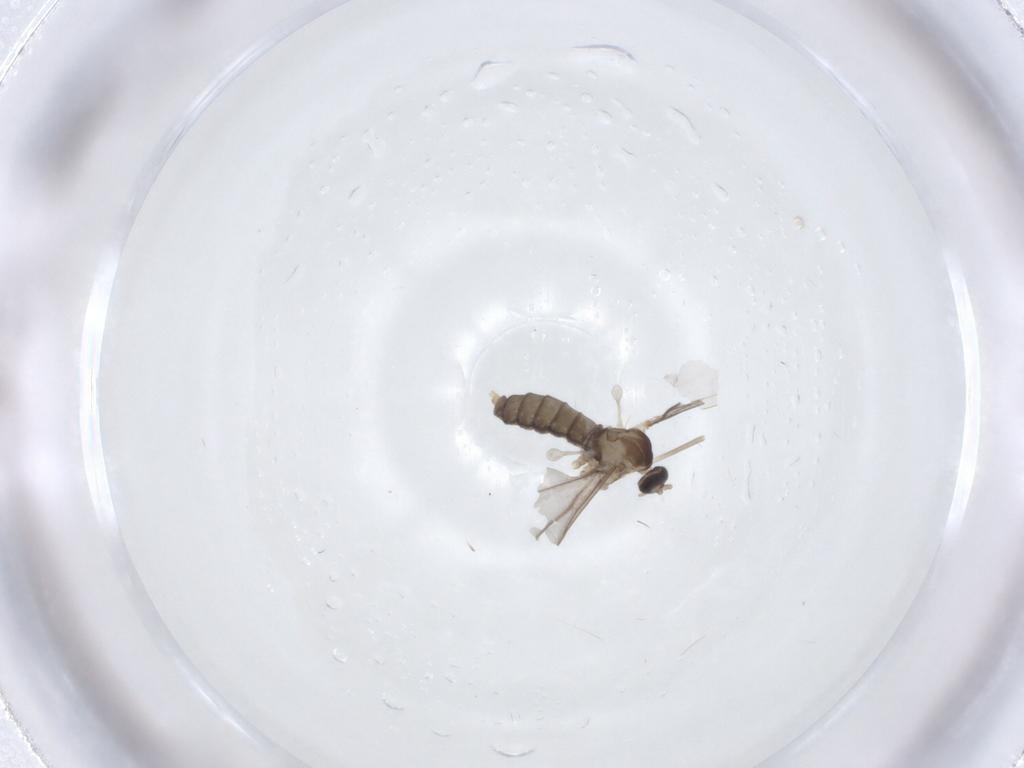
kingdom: Animalia
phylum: Arthropoda
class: Insecta
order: Diptera
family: Cecidomyiidae
